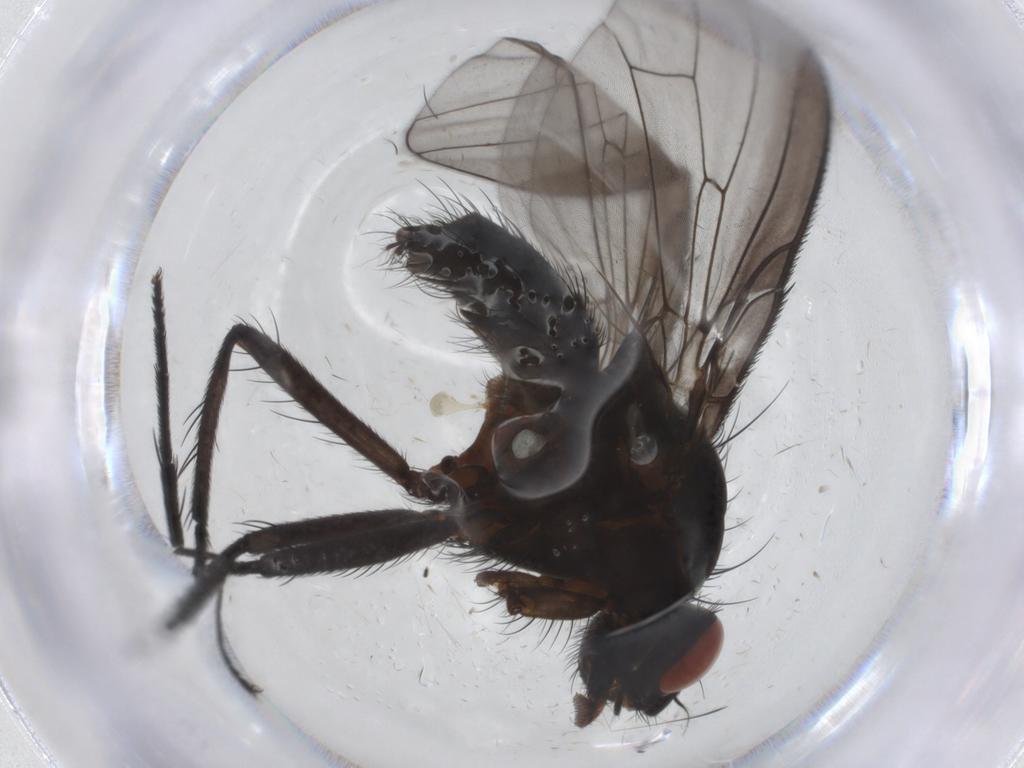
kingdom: Animalia
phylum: Arthropoda
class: Insecta
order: Diptera
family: Anthomyiidae
